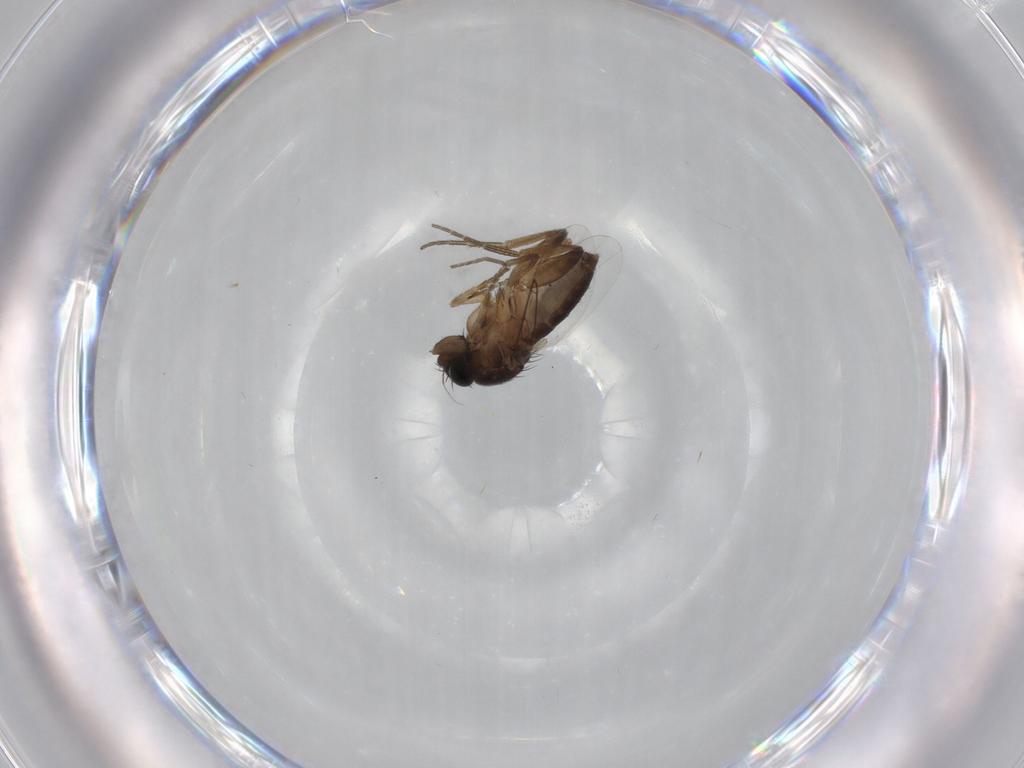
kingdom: Animalia
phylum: Arthropoda
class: Insecta
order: Diptera
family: Phoridae
